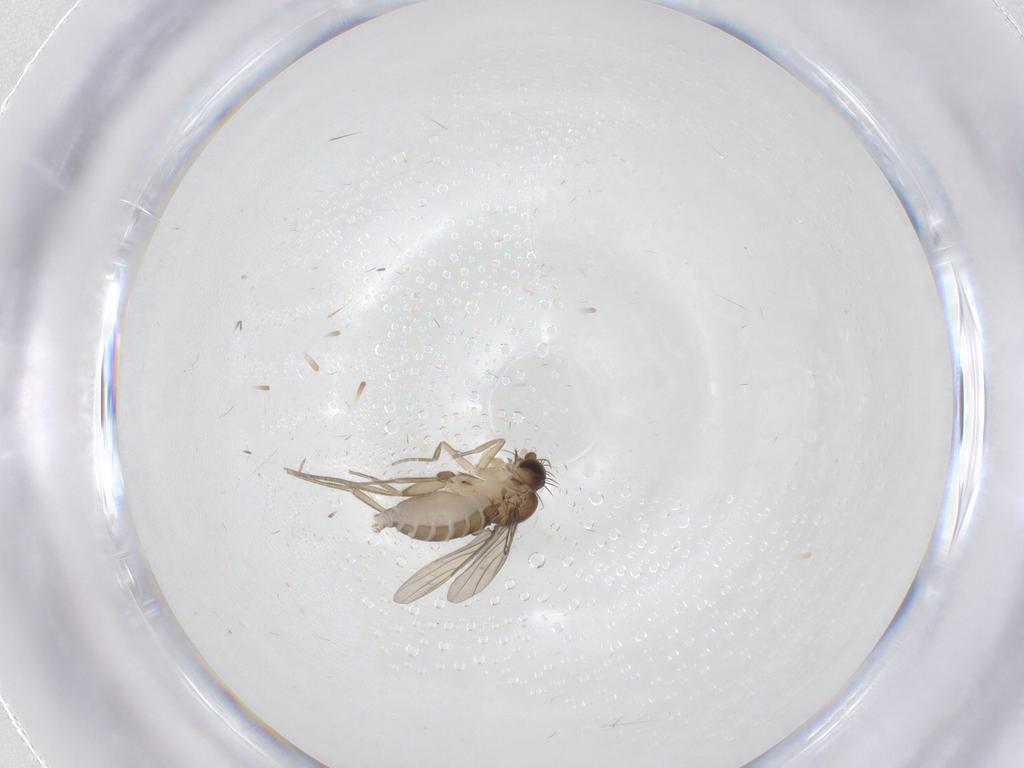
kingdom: Animalia
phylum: Arthropoda
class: Insecta
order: Diptera
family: Phoridae
